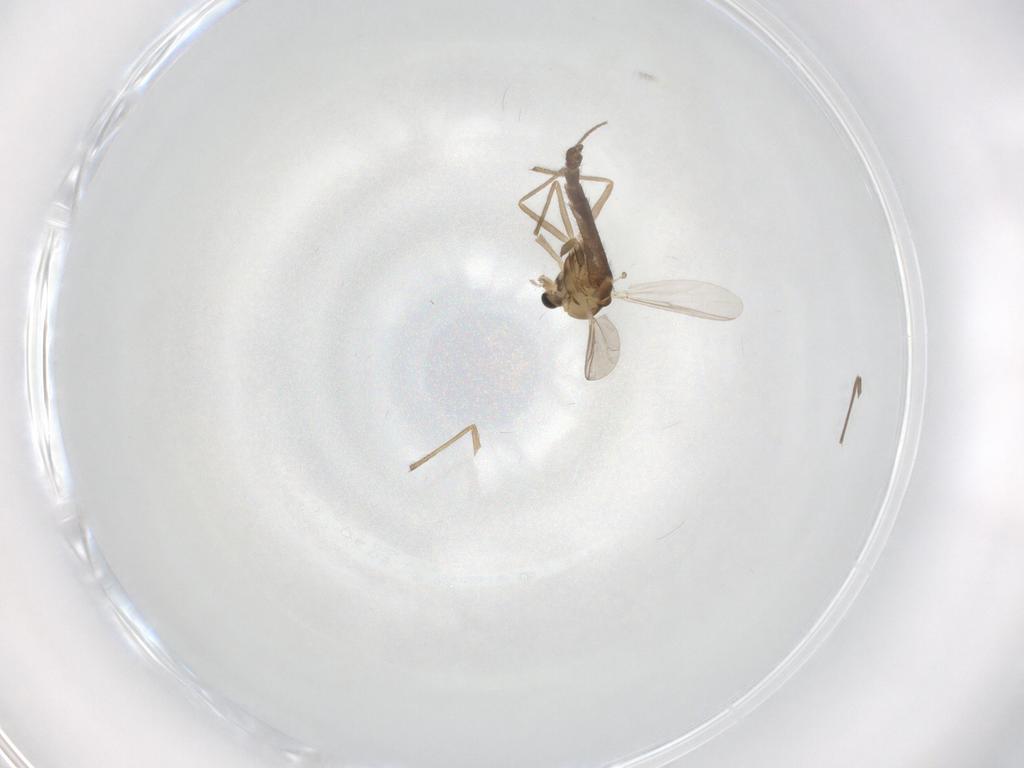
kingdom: Animalia
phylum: Arthropoda
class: Insecta
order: Diptera
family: Chironomidae
